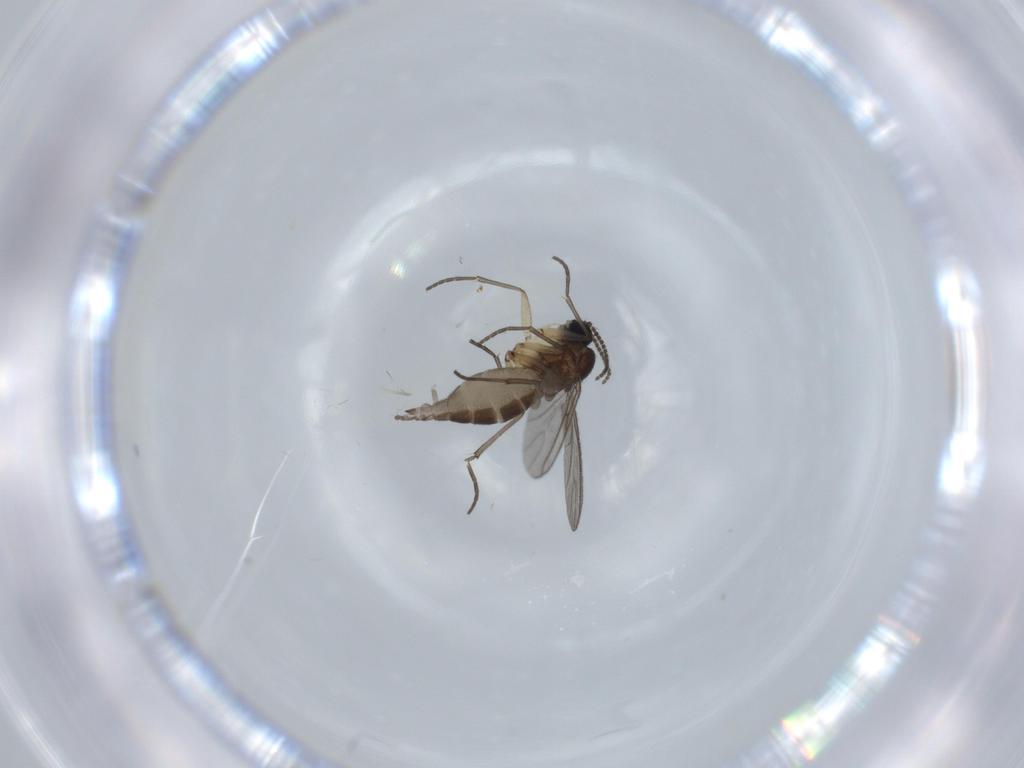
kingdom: Animalia
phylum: Arthropoda
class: Insecta
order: Diptera
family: Sciaridae
